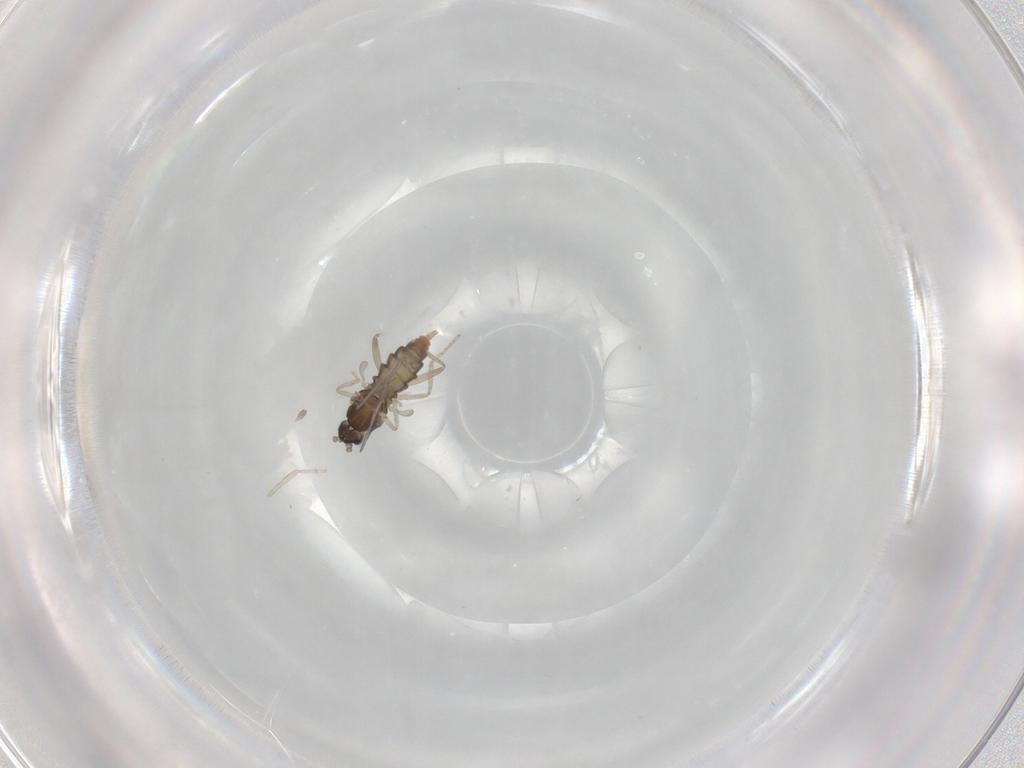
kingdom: Animalia
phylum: Arthropoda
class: Insecta
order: Diptera
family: Cecidomyiidae
